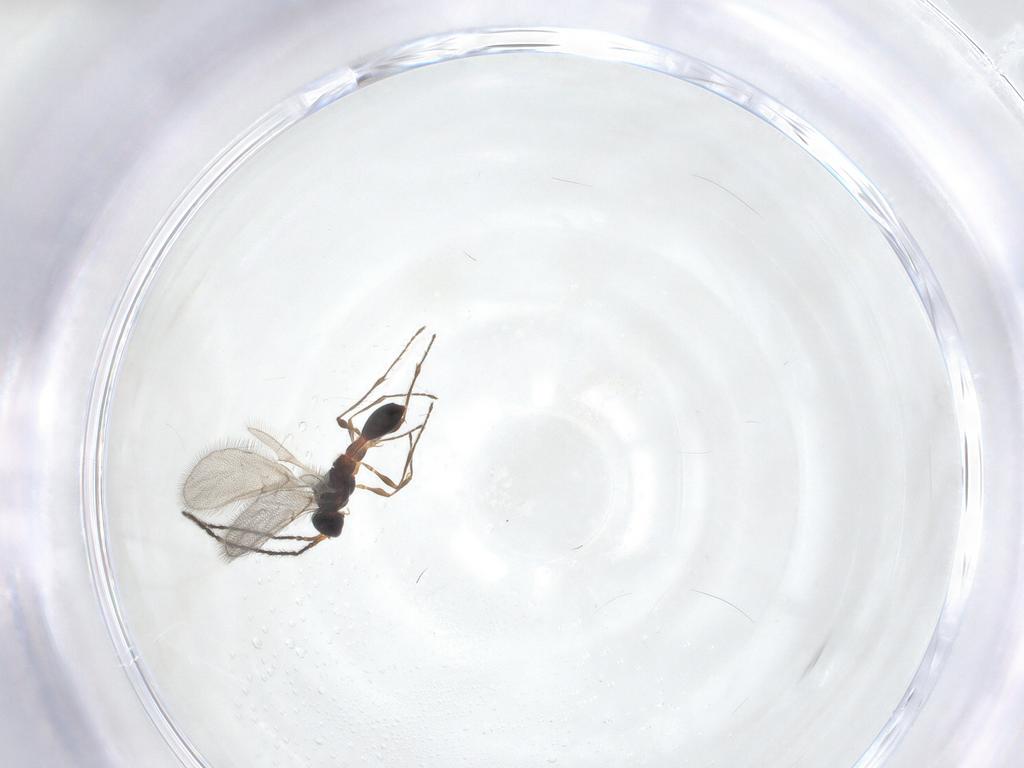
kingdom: Animalia
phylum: Arthropoda
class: Insecta
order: Hymenoptera
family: Diapriidae
